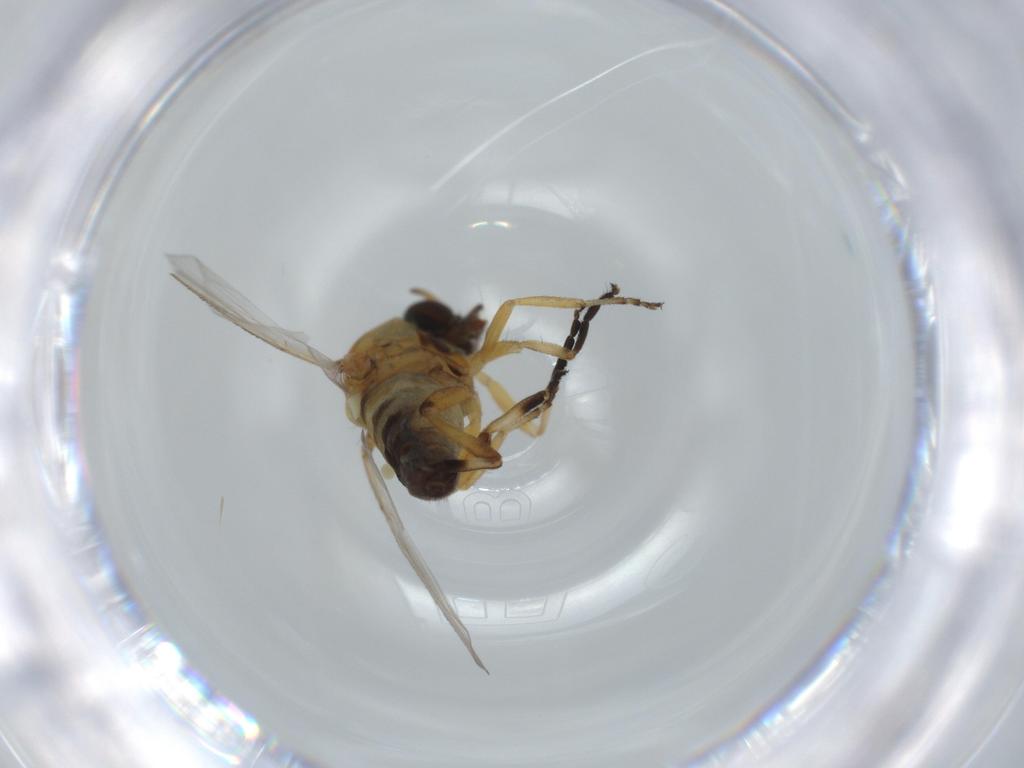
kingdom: Animalia
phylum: Arthropoda
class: Insecta
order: Diptera
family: Phoridae
